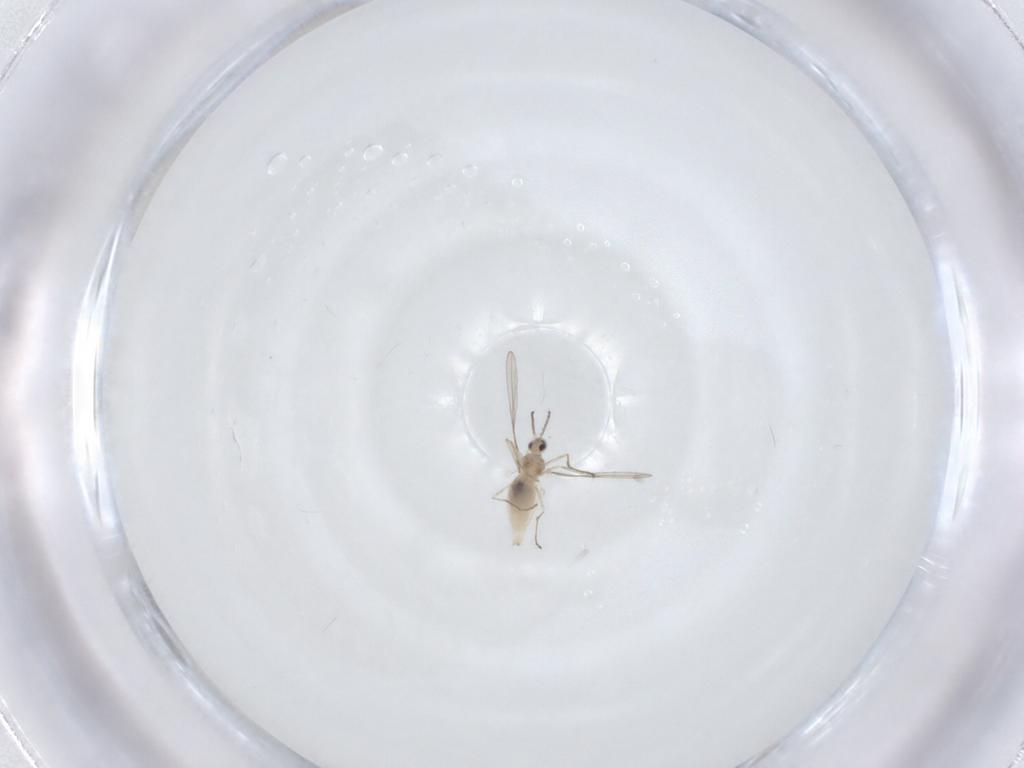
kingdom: Animalia
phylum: Arthropoda
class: Insecta
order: Diptera
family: Cecidomyiidae
